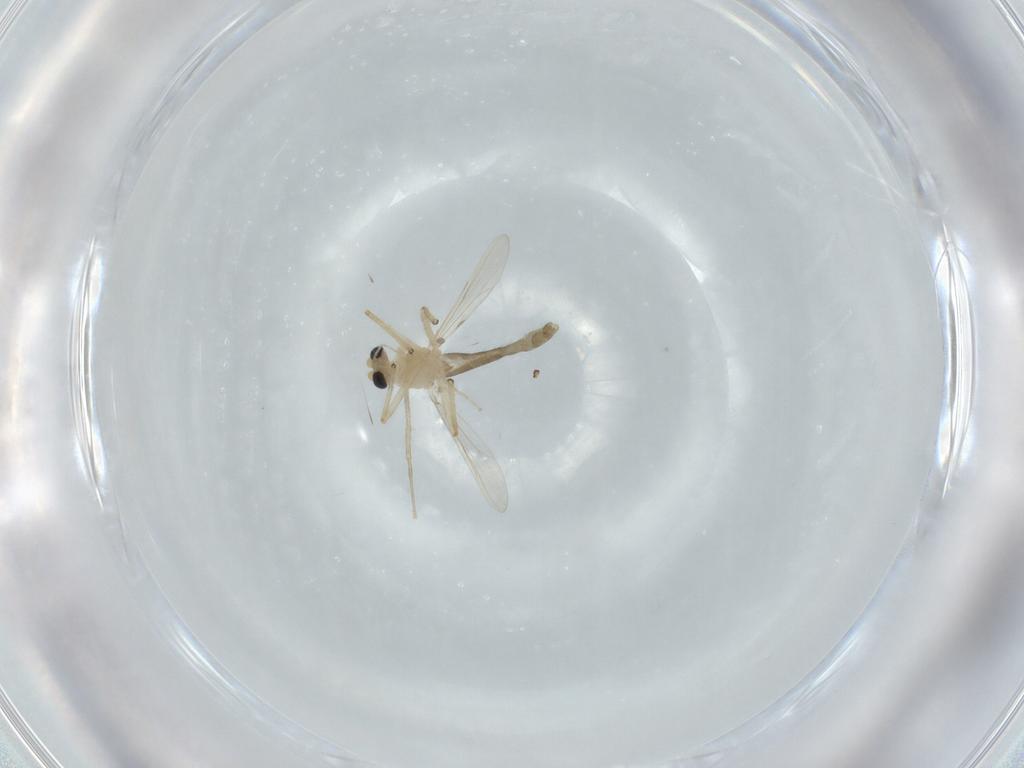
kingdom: Animalia
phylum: Arthropoda
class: Insecta
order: Diptera
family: Chironomidae
